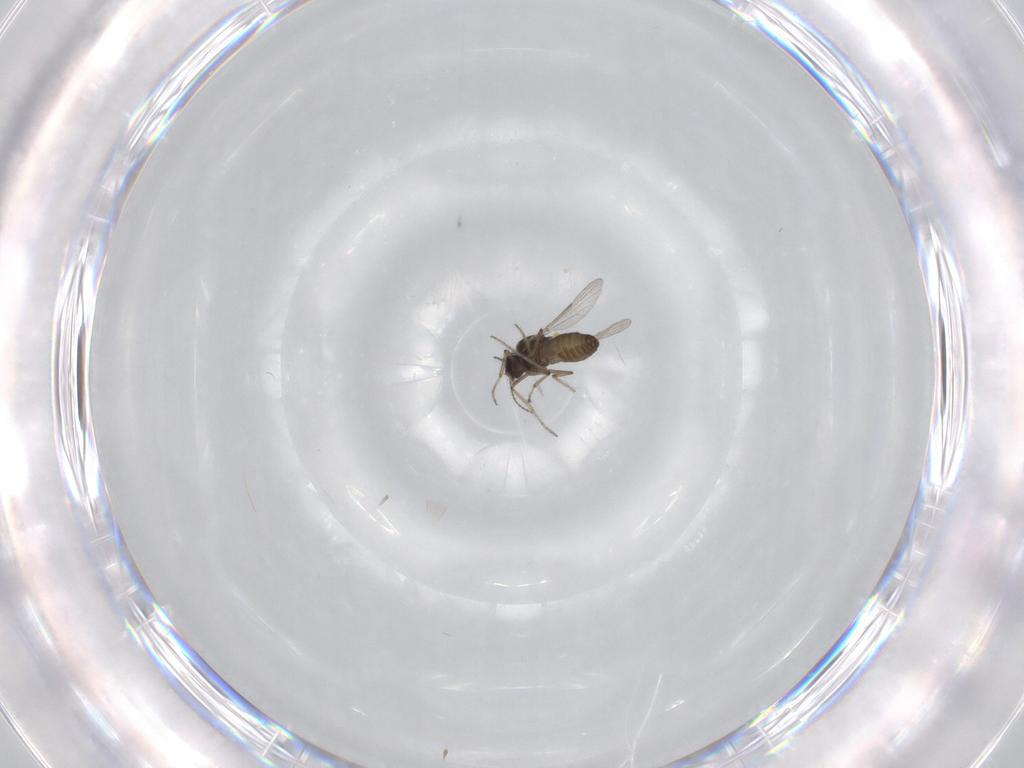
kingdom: Animalia
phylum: Arthropoda
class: Insecta
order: Diptera
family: Ceratopogonidae
